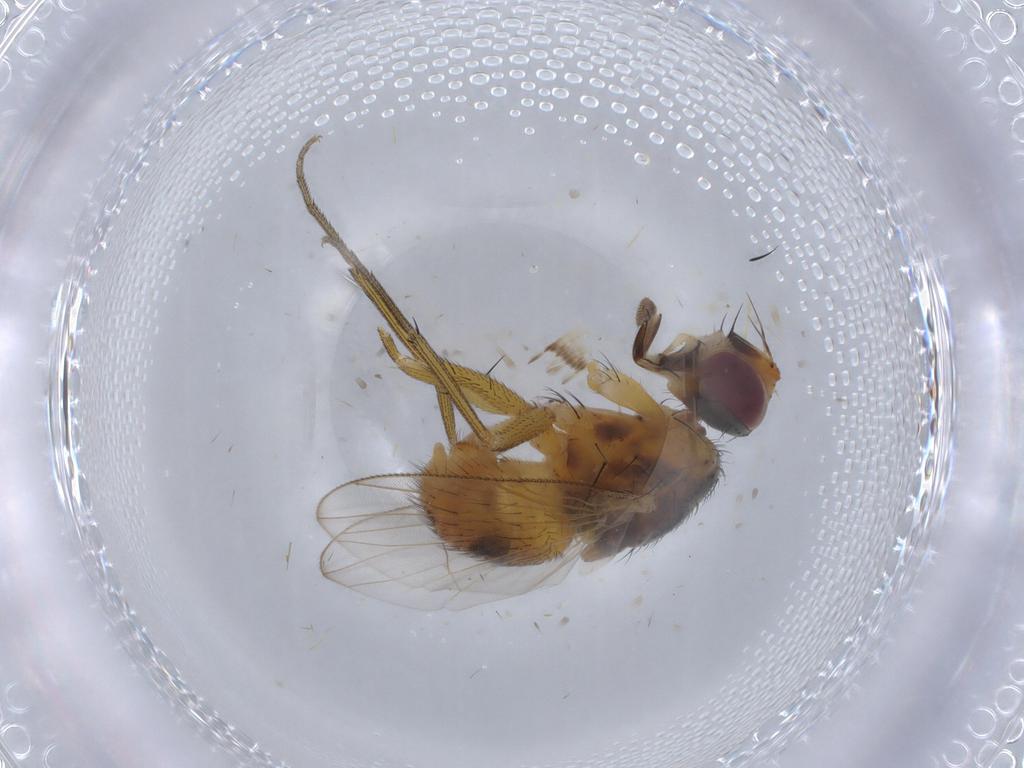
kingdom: Animalia
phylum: Arthropoda
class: Insecta
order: Diptera
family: Muscidae
